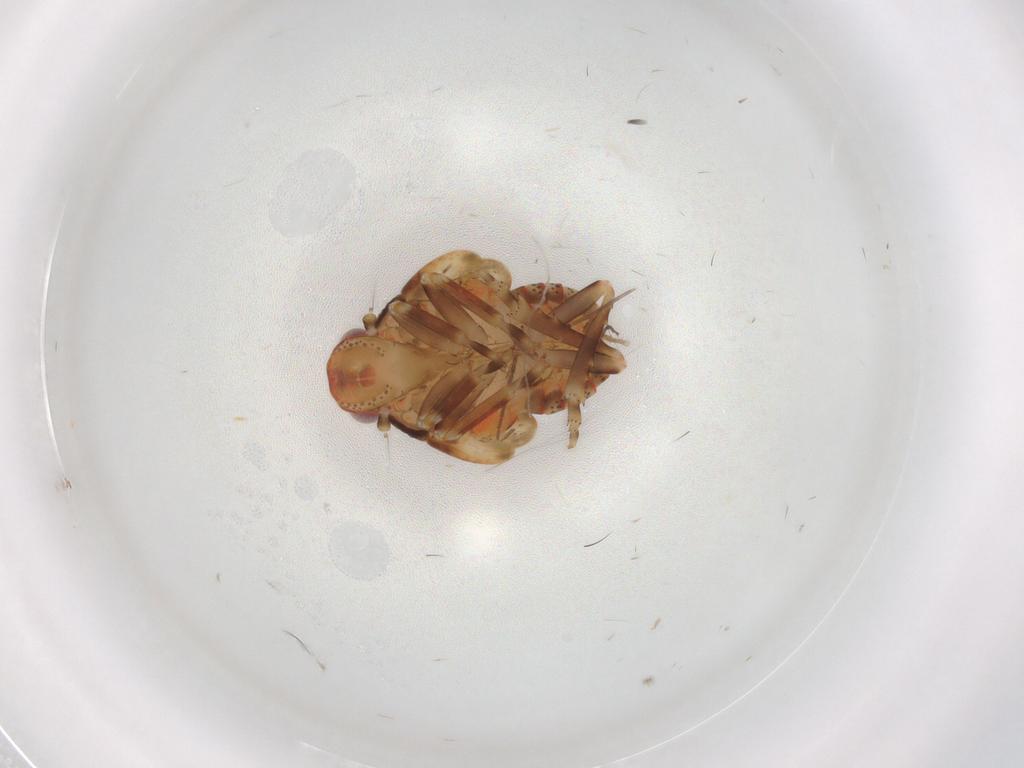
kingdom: Animalia
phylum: Arthropoda
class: Insecta
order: Hemiptera
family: Flatidae
